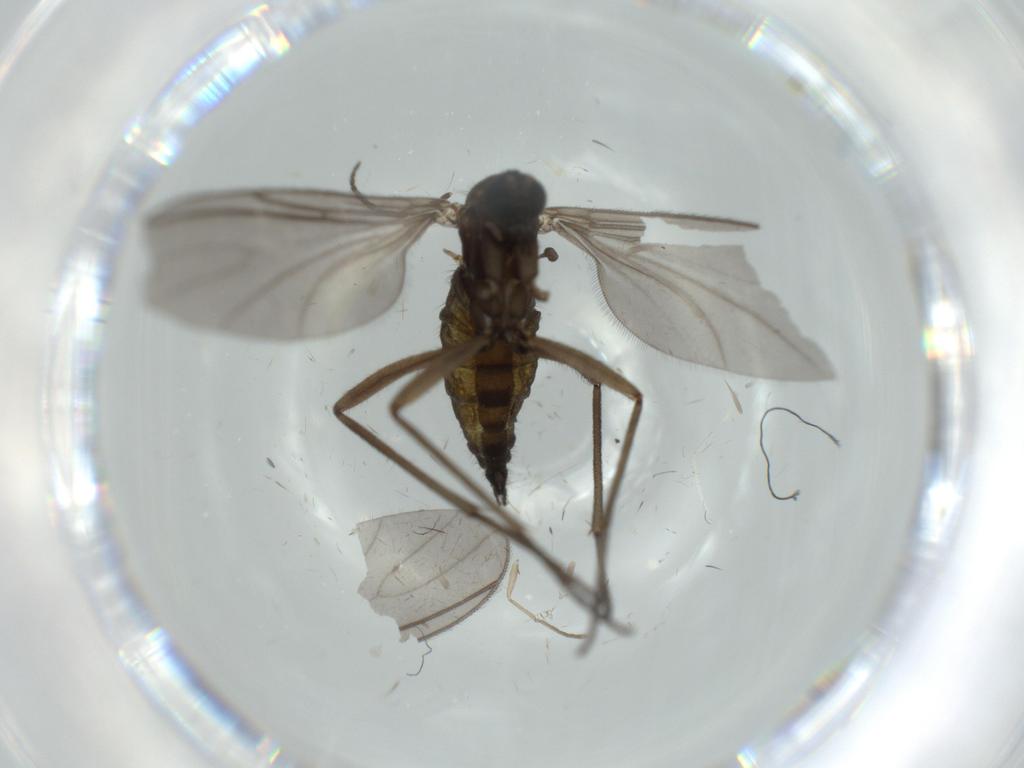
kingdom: Animalia
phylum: Arthropoda
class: Insecta
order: Diptera
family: Sciaridae
